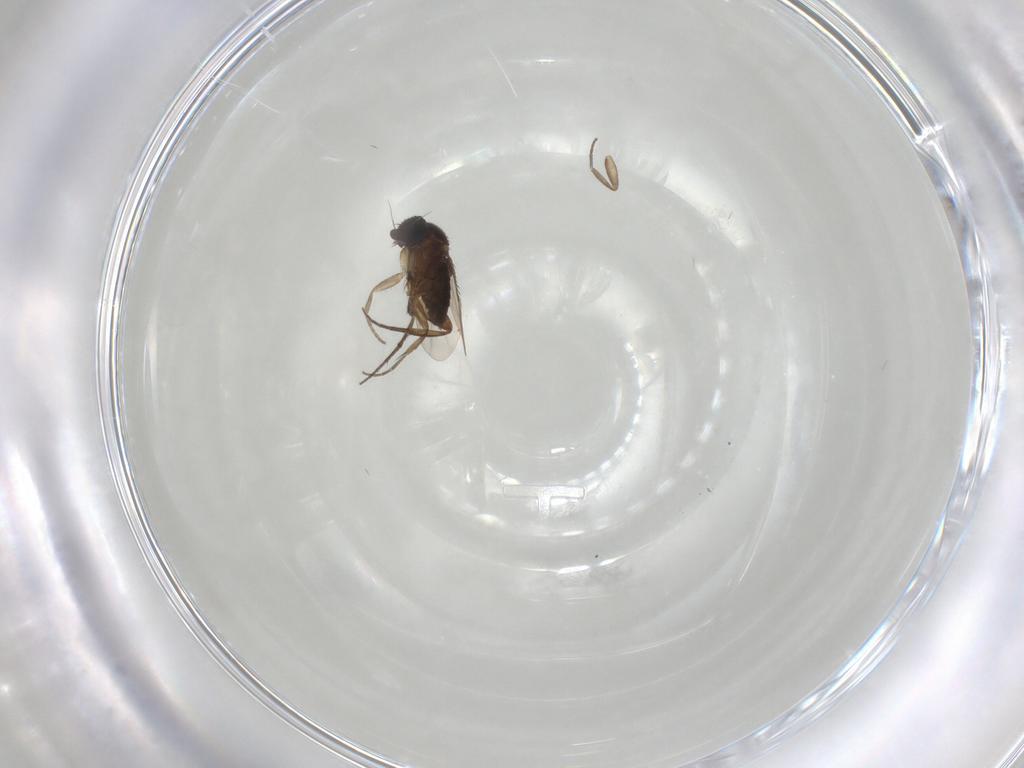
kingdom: Animalia
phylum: Arthropoda
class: Insecta
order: Diptera
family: Phoridae
